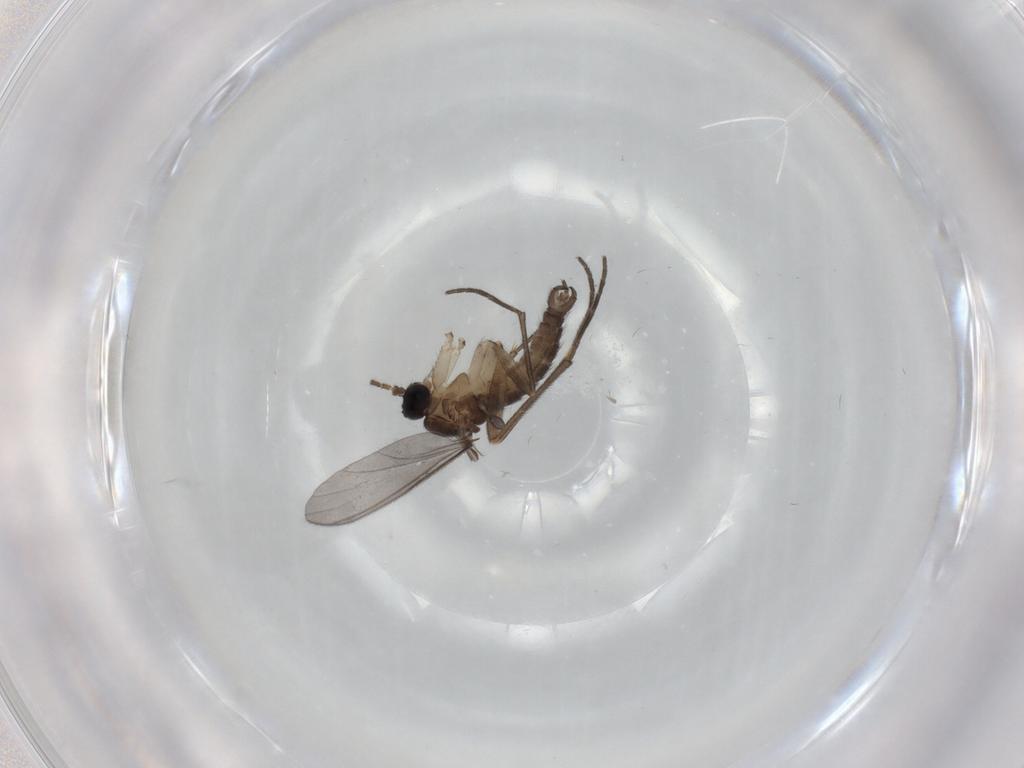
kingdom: Animalia
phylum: Arthropoda
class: Insecta
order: Diptera
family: Sciaridae
